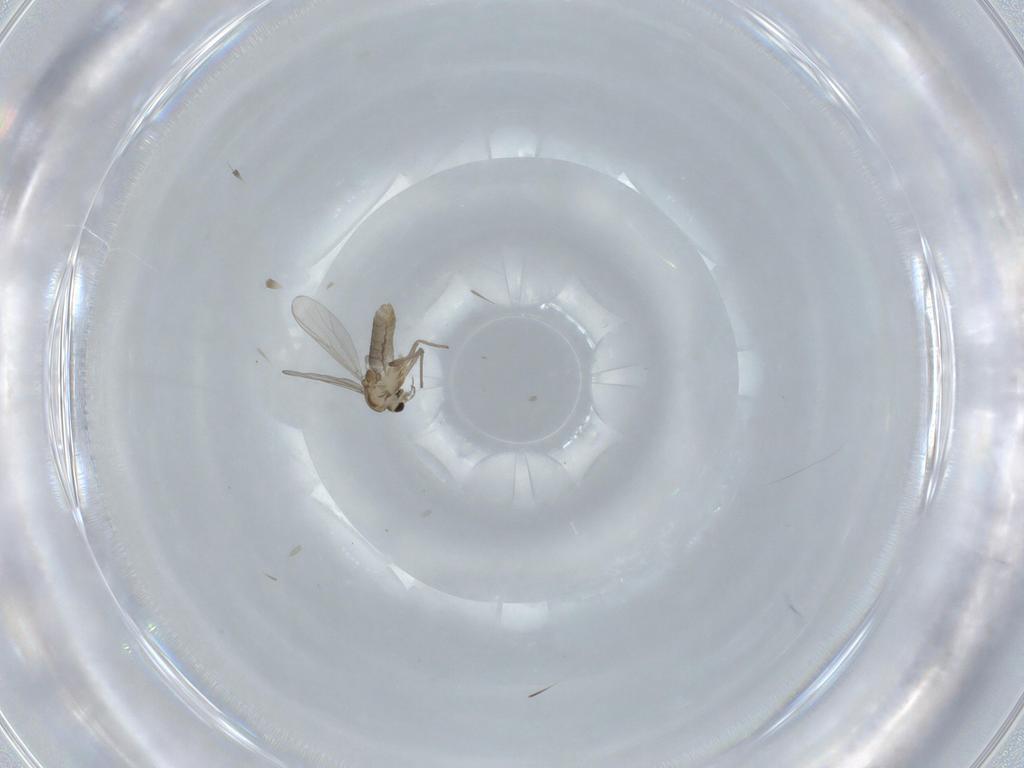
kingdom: Animalia
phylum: Arthropoda
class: Insecta
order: Diptera
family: Chironomidae
